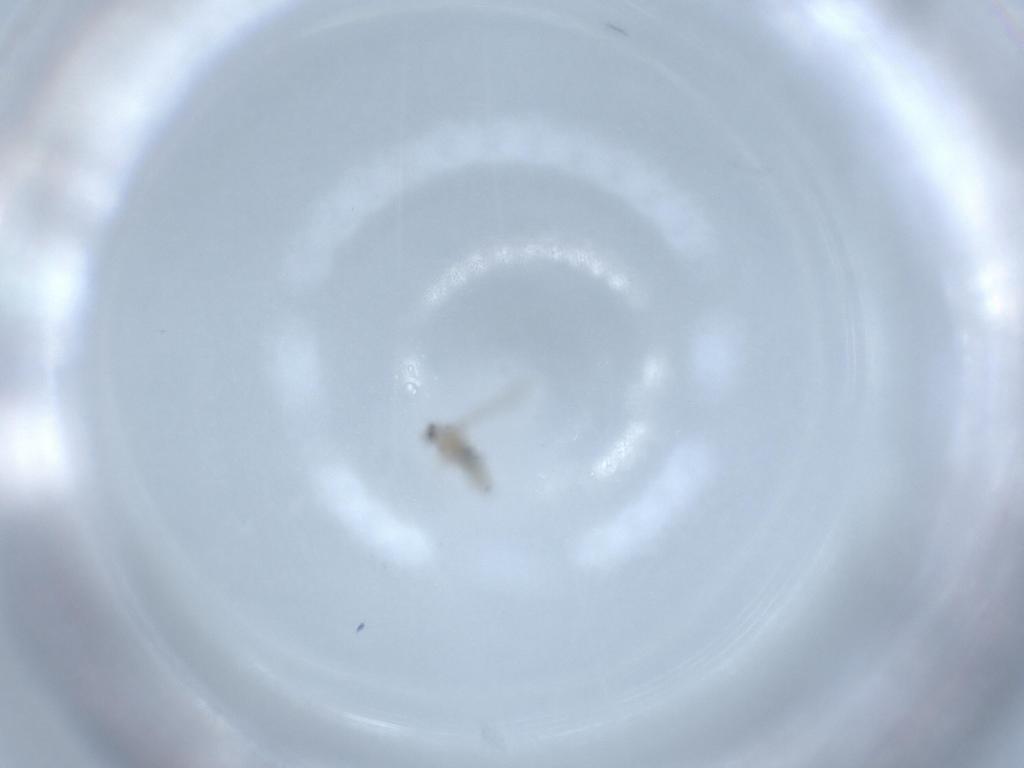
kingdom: Animalia
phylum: Arthropoda
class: Insecta
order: Diptera
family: Cecidomyiidae
